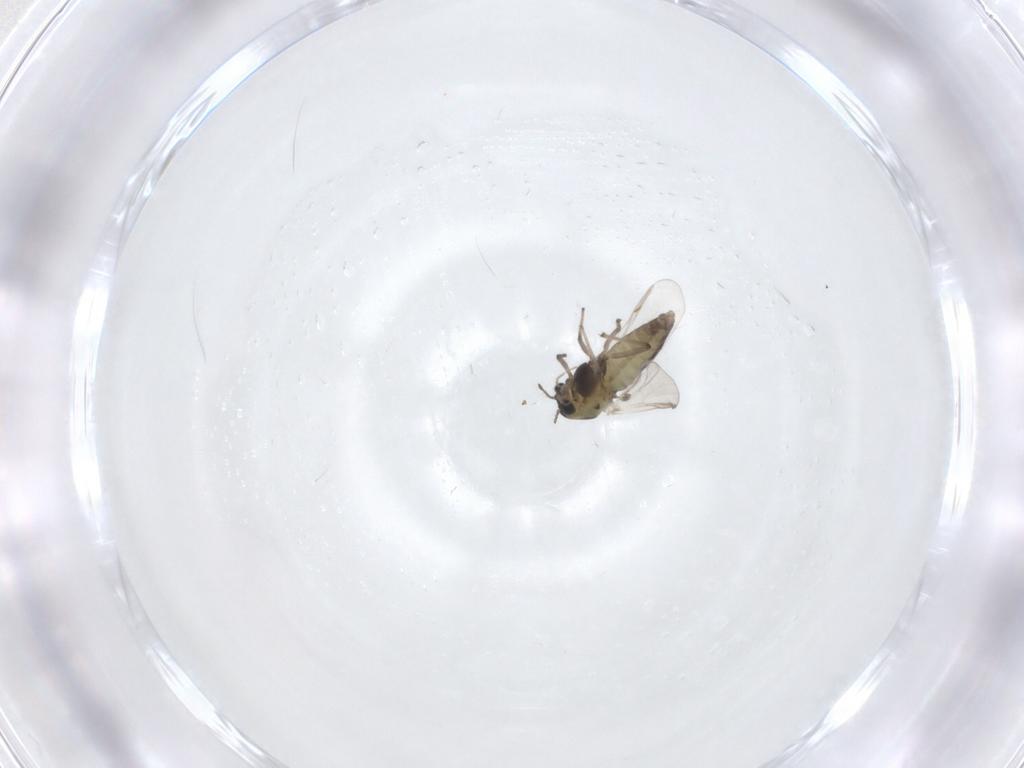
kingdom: Animalia
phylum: Arthropoda
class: Insecta
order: Diptera
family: Chironomidae
